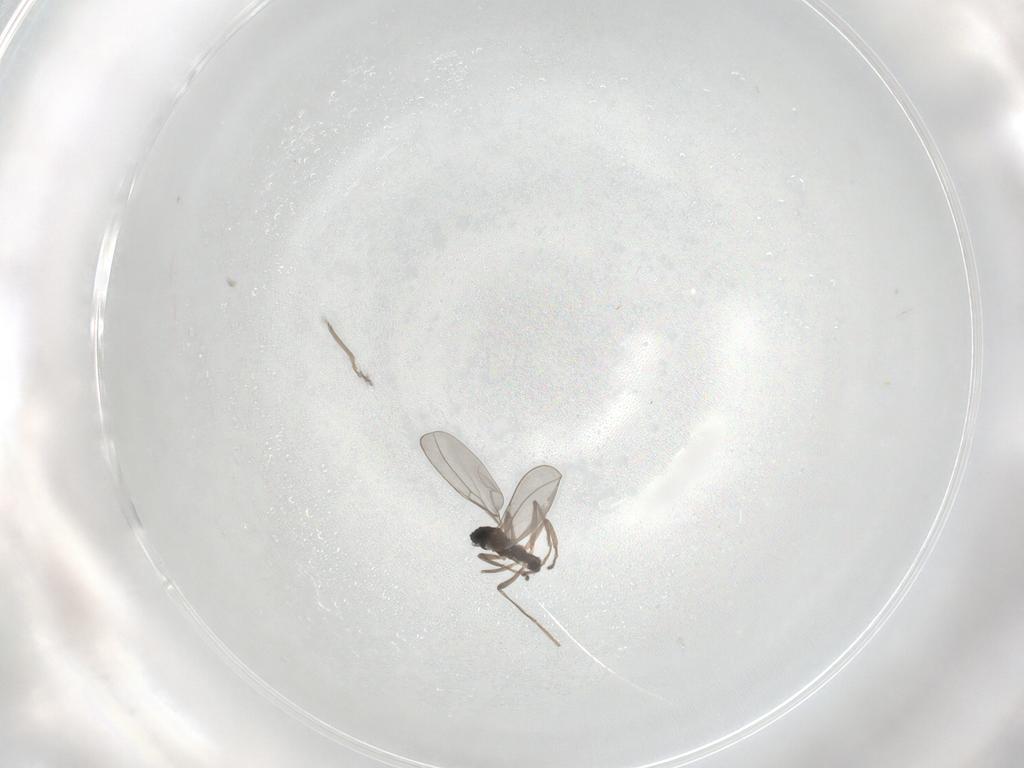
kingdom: Animalia
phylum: Arthropoda
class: Insecta
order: Diptera
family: Cecidomyiidae
